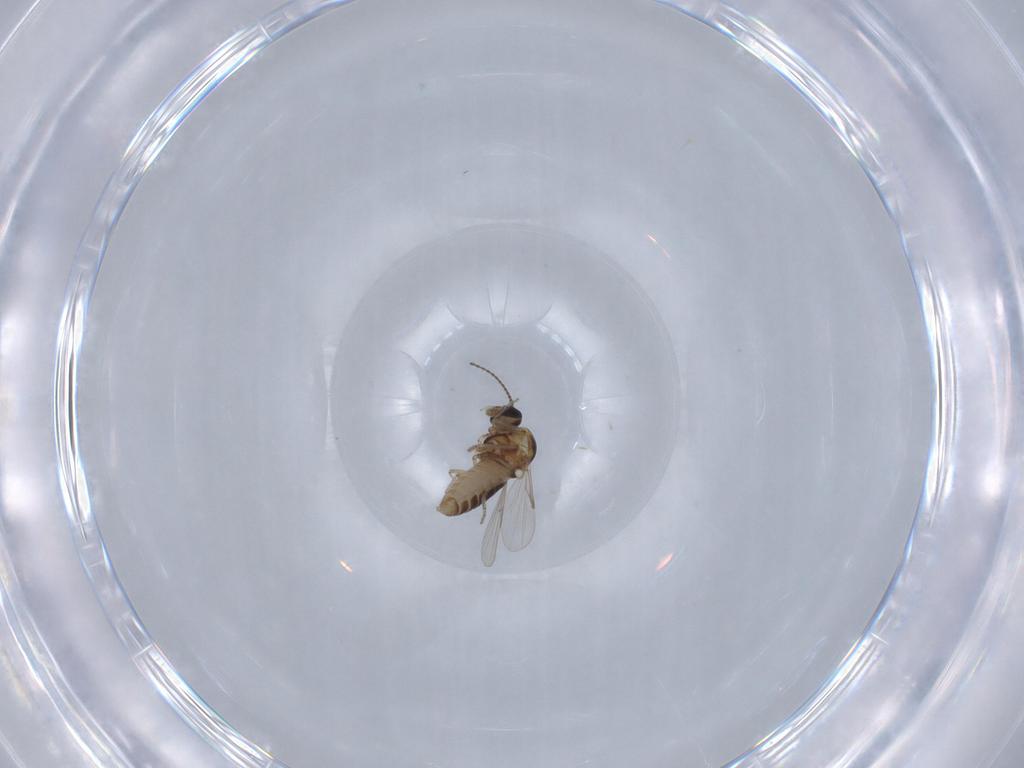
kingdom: Animalia
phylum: Arthropoda
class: Insecta
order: Diptera
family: Ceratopogonidae
